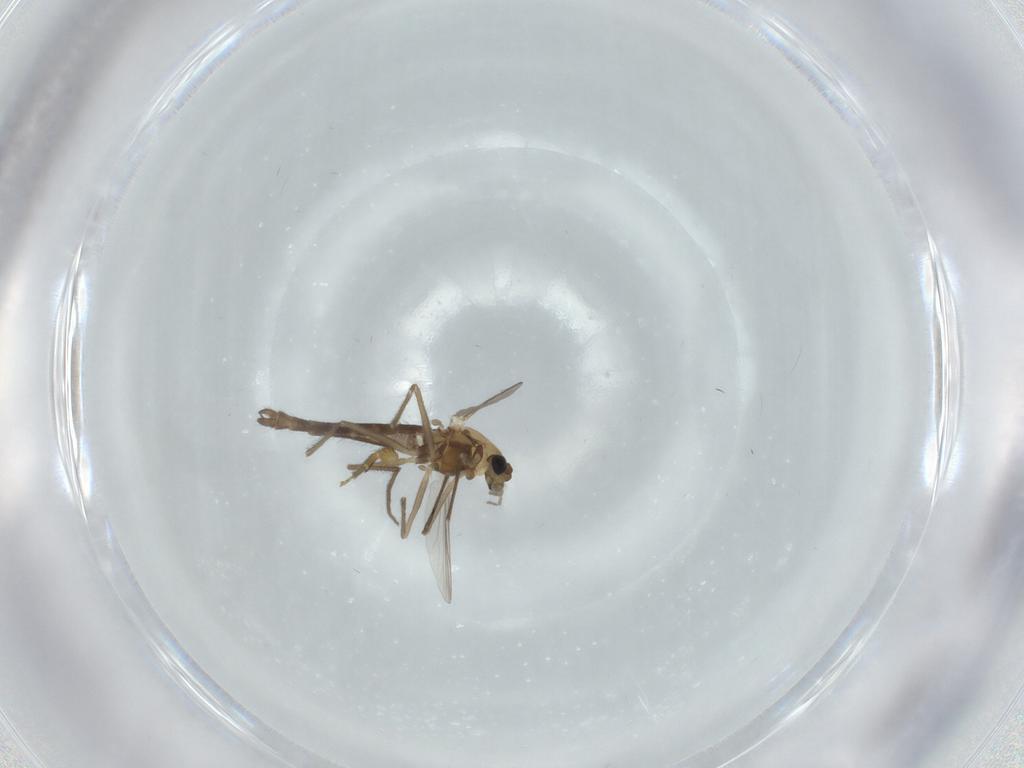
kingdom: Animalia
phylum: Arthropoda
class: Insecta
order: Diptera
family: Chironomidae
